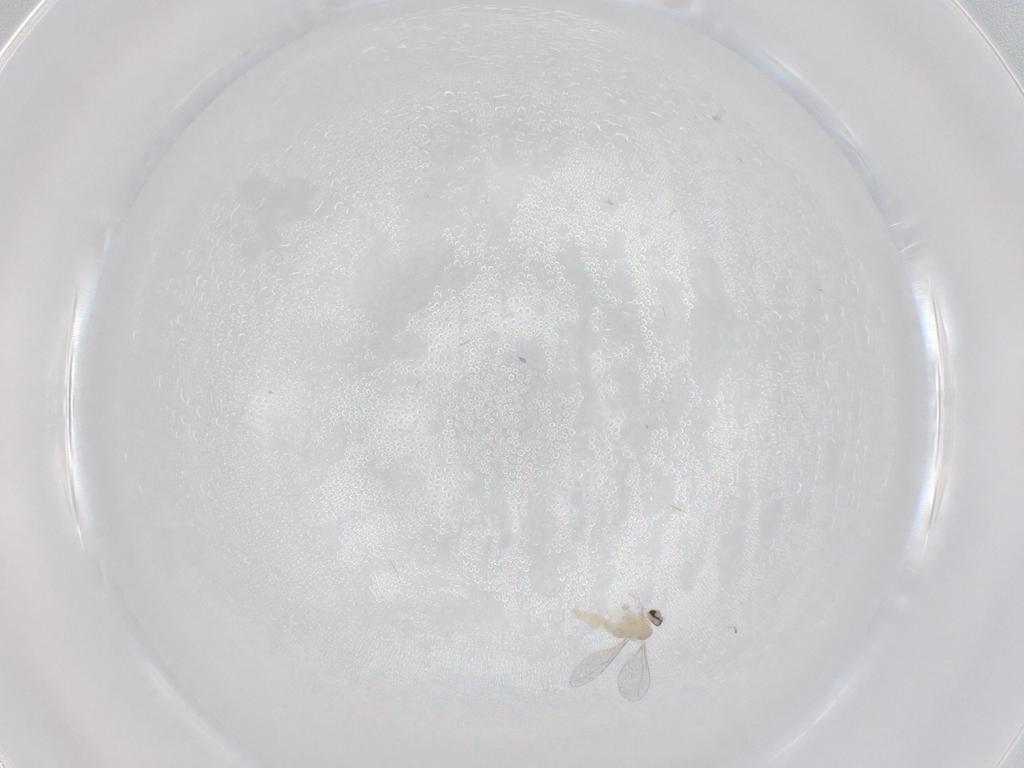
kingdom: Animalia
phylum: Arthropoda
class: Insecta
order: Diptera
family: Cecidomyiidae
